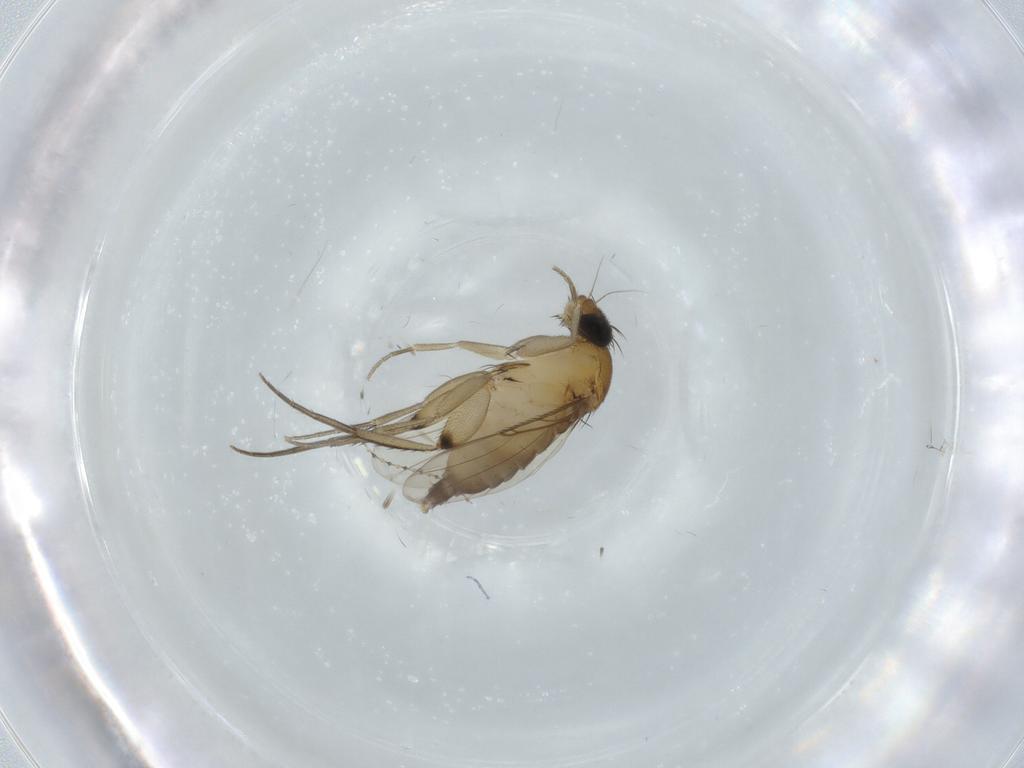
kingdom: Animalia
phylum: Arthropoda
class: Insecta
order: Diptera
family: Phoridae
